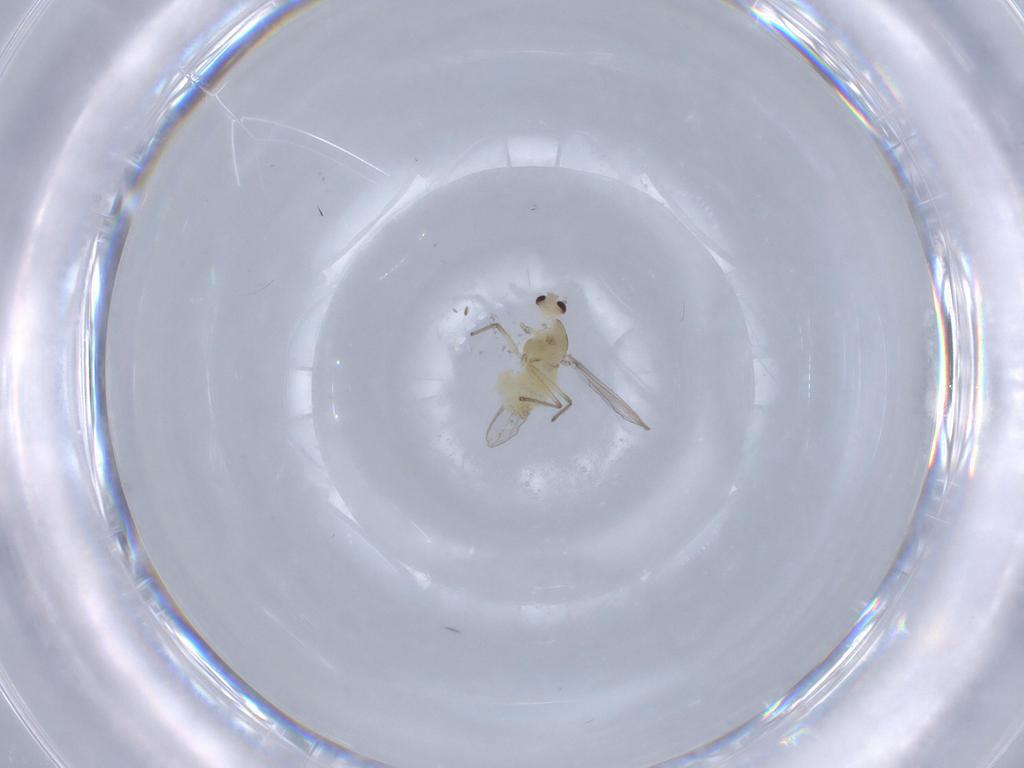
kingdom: Animalia
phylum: Arthropoda
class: Insecta
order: Diptera
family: Chironomidae
